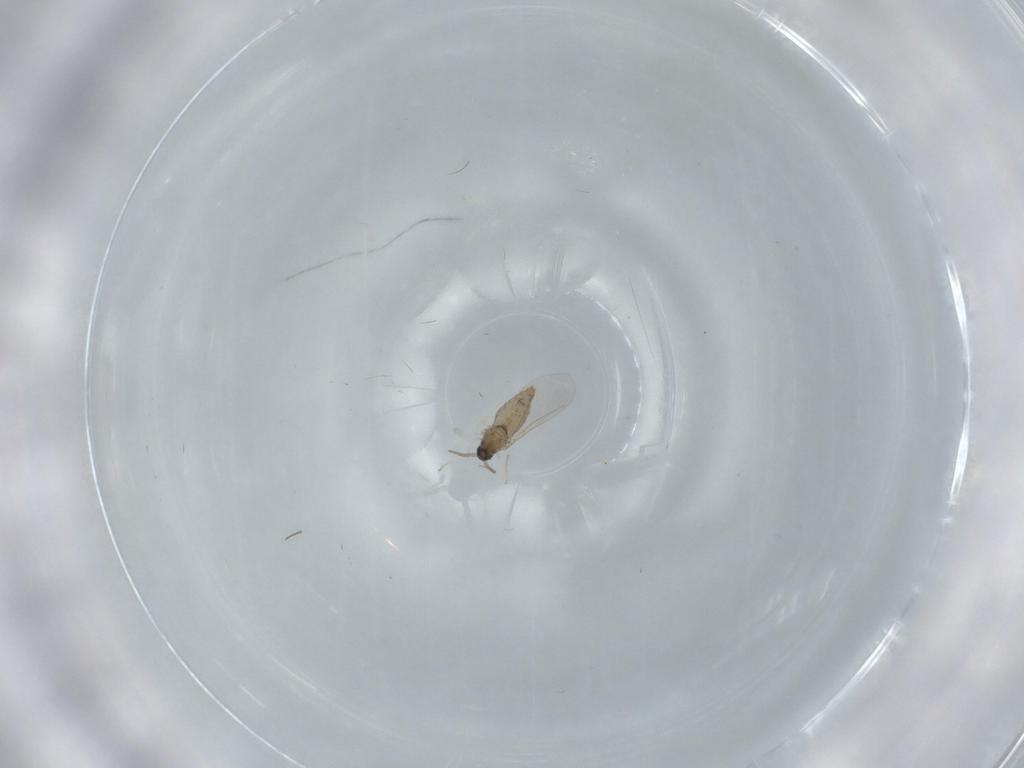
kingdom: Animalia
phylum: Arthropoda
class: Insecta
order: Diptera
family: Cecidomyiidae
